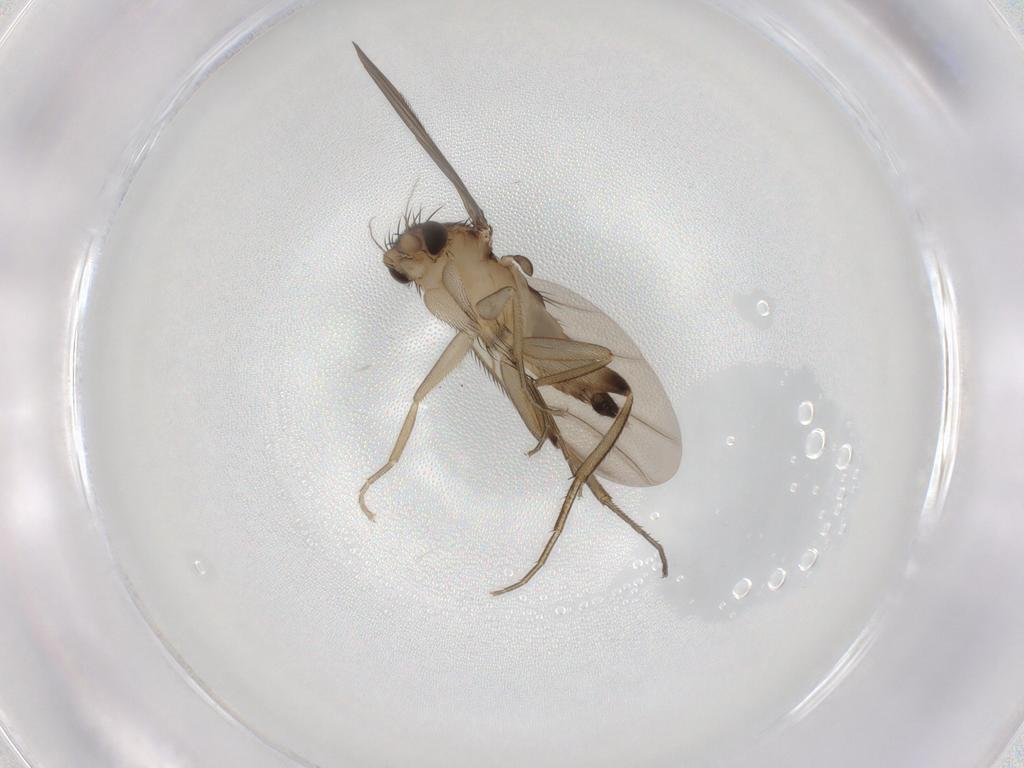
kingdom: Animalia
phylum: Arthropoda
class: Insecta
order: Diptera
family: Phoridae
